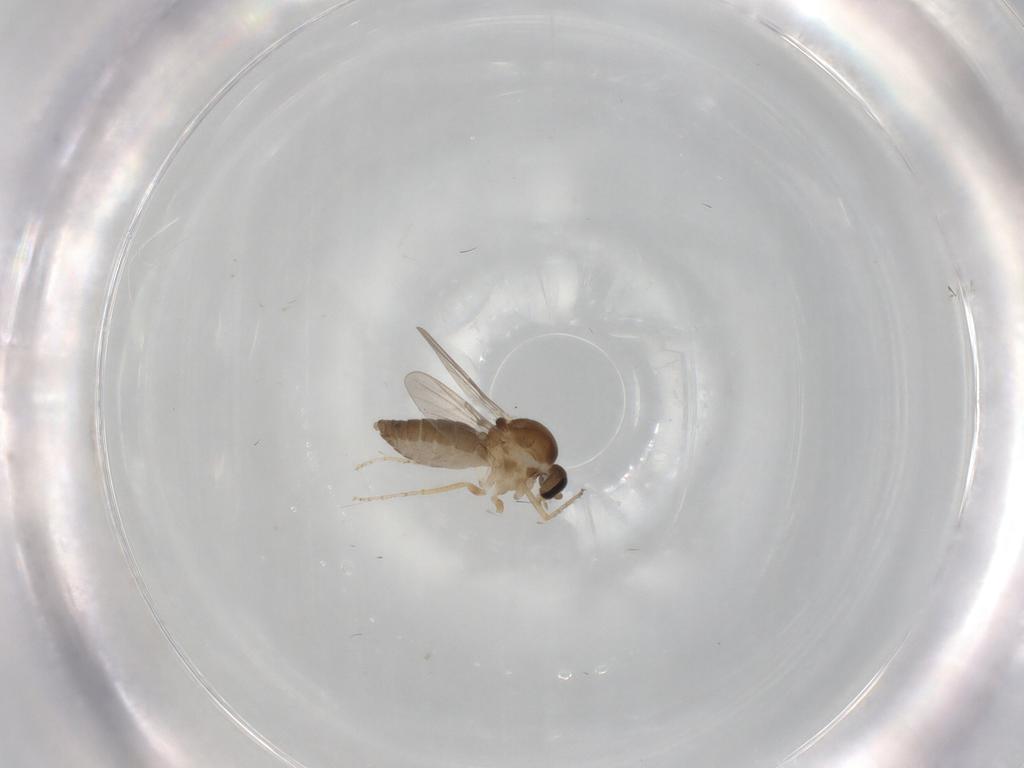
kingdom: Animalia
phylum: Arthropoda
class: Insecta
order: Diptera
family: Ceratopogonidae
